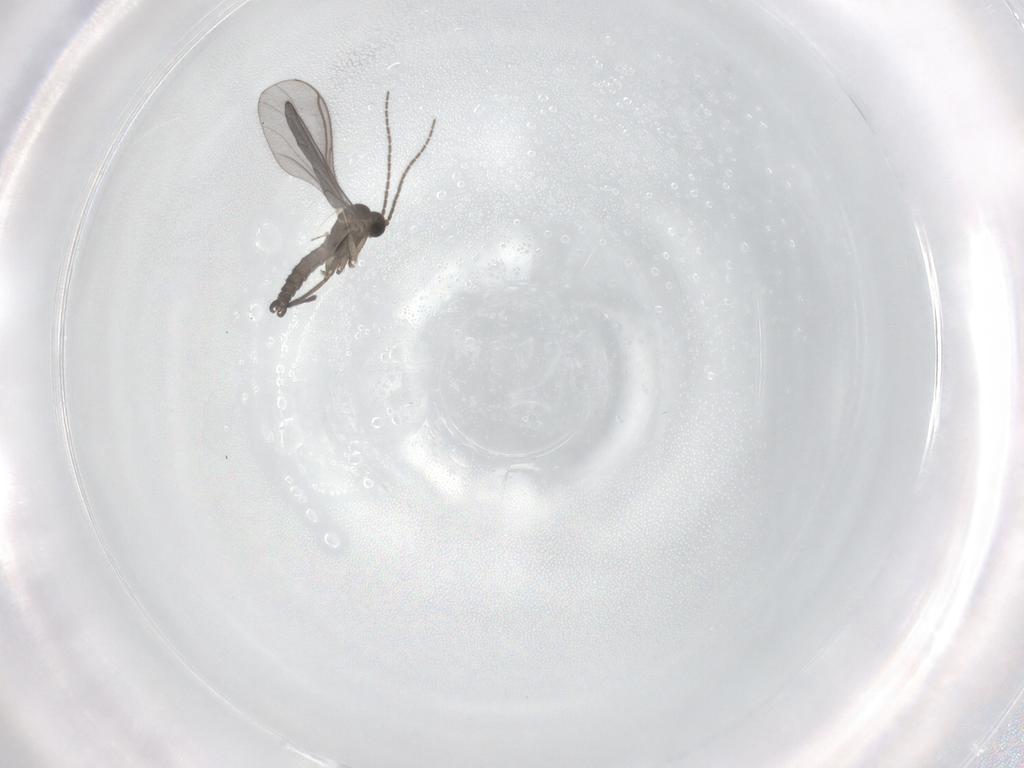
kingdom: Animalia
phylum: Arthropoda
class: Insecta
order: Diptera
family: Sciaridae
